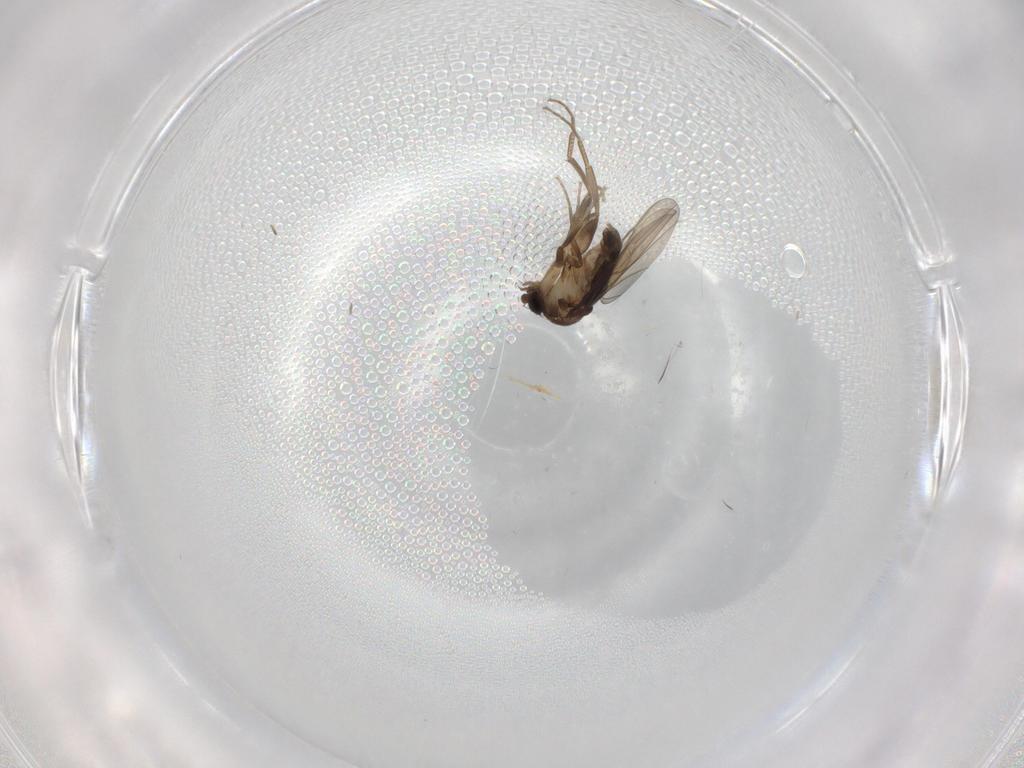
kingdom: Animalia
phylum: Arthropoda
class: Insecta
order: Diptera
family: Phoridae
